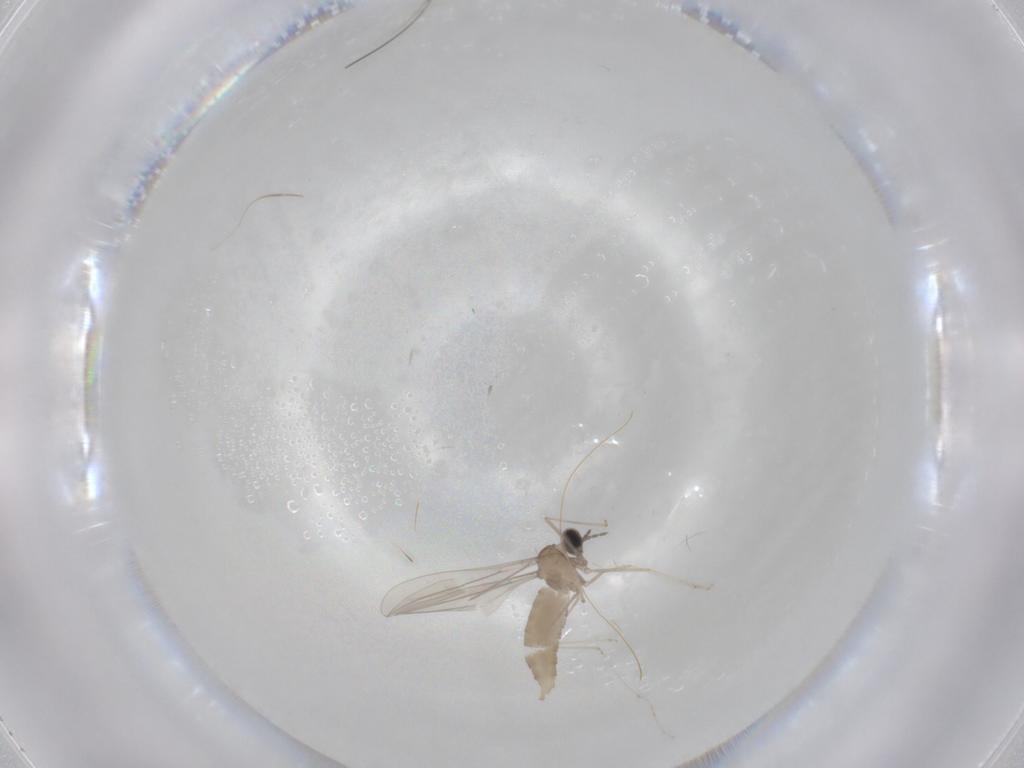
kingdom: Animalia
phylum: Arthropoda
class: Insecta
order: Diptera
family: Cecidomyiidae
